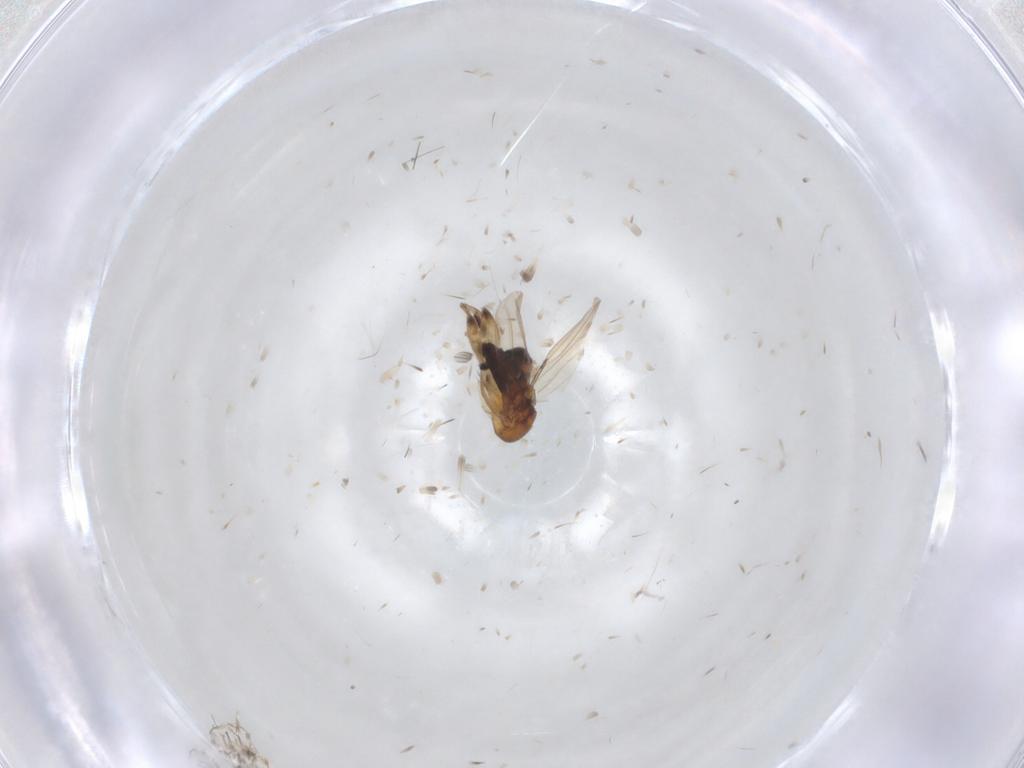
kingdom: Animalia
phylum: Arthropoda
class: Insecta
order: Diptera
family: Phoridae
